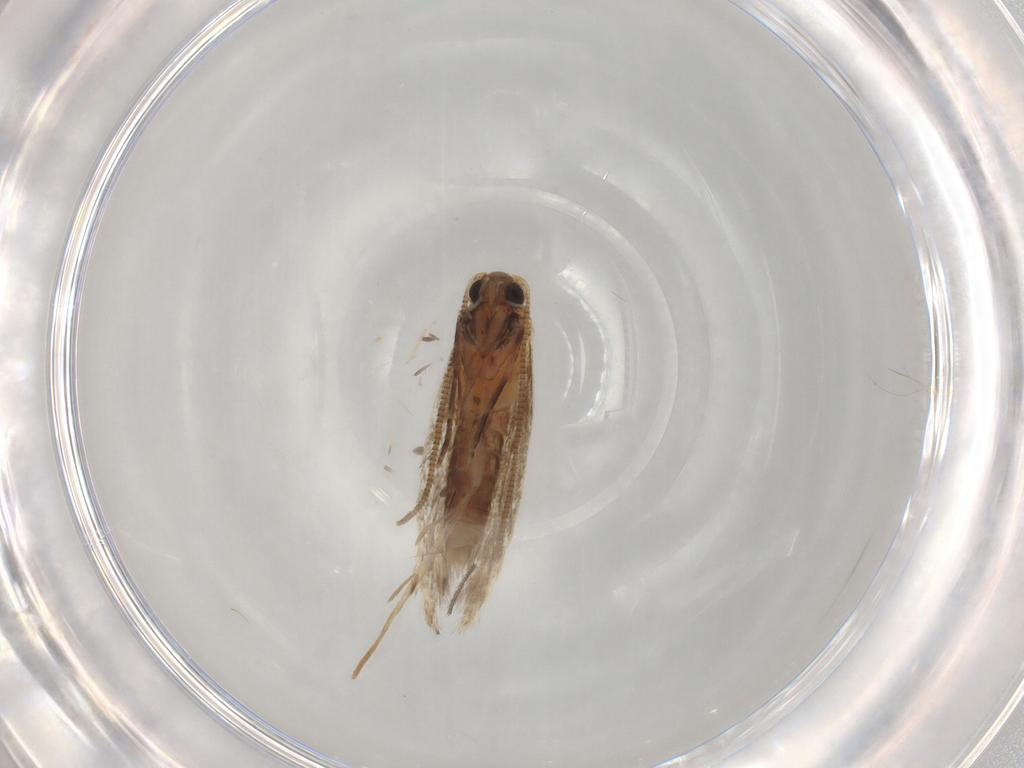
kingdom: Animalia
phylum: Arthropoda
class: Insecta
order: Lepidoptera
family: Tineidae
